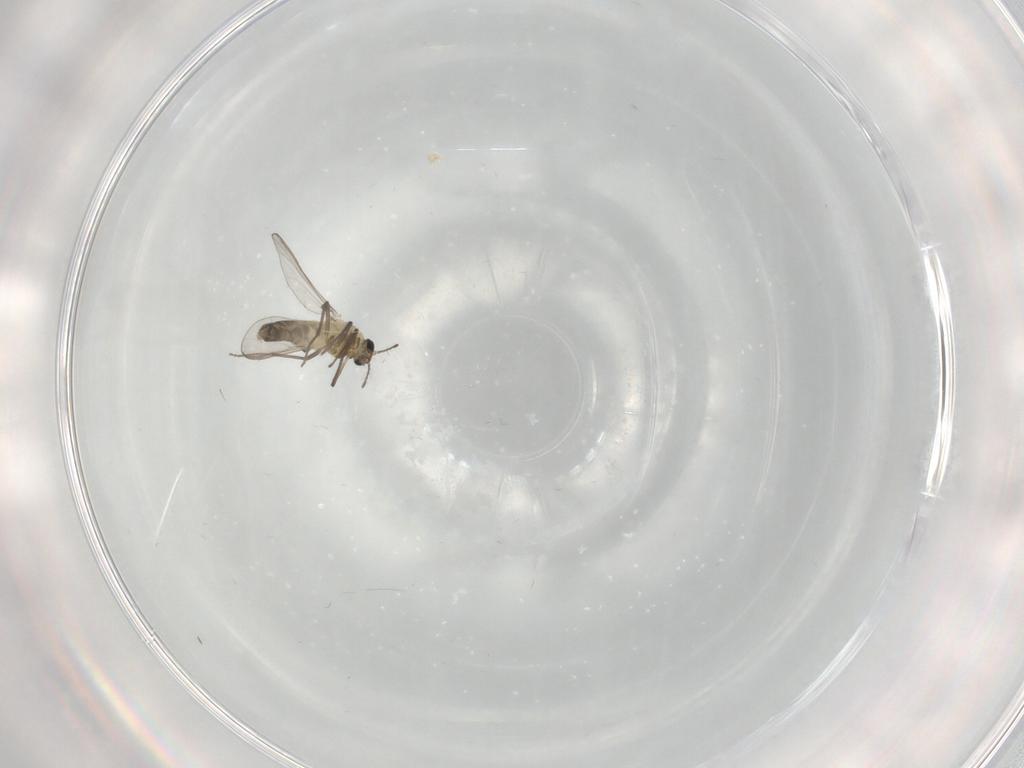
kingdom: Animalia
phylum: Arthropoda
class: Insecta
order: Diptera
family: Chironomidae
